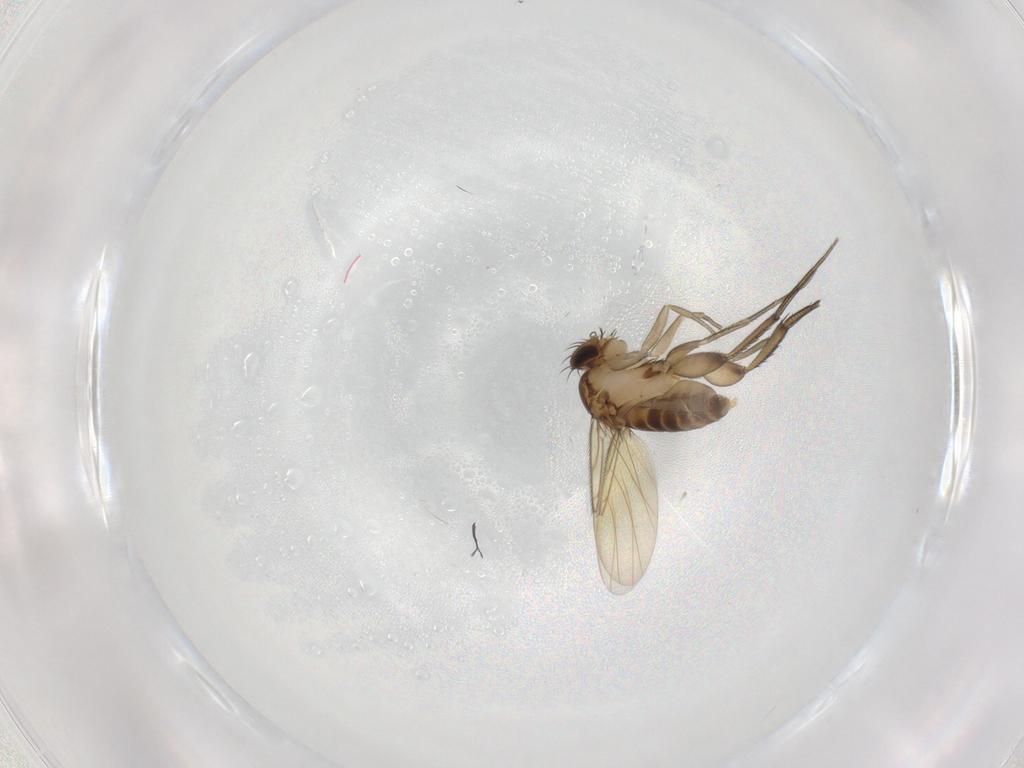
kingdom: Animalia
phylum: Arthropoda
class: Insecta
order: Diptera
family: Phoridae
